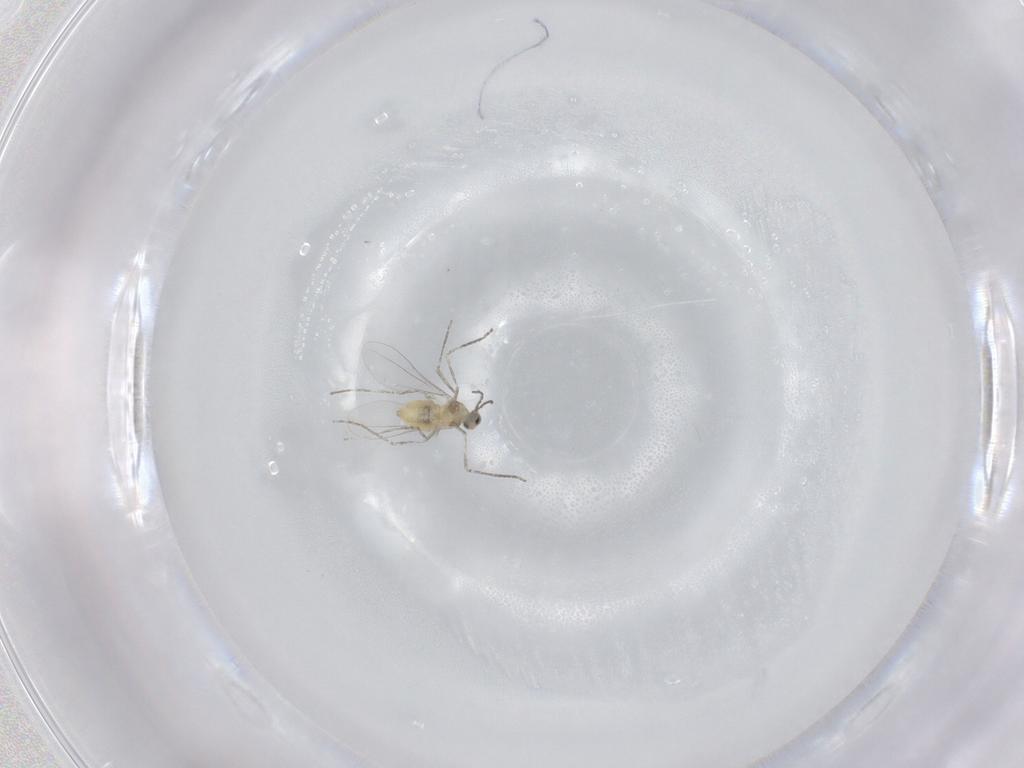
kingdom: Animalia
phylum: Arthropoda
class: Insecta
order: Diptera
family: Cecidomyiidae
